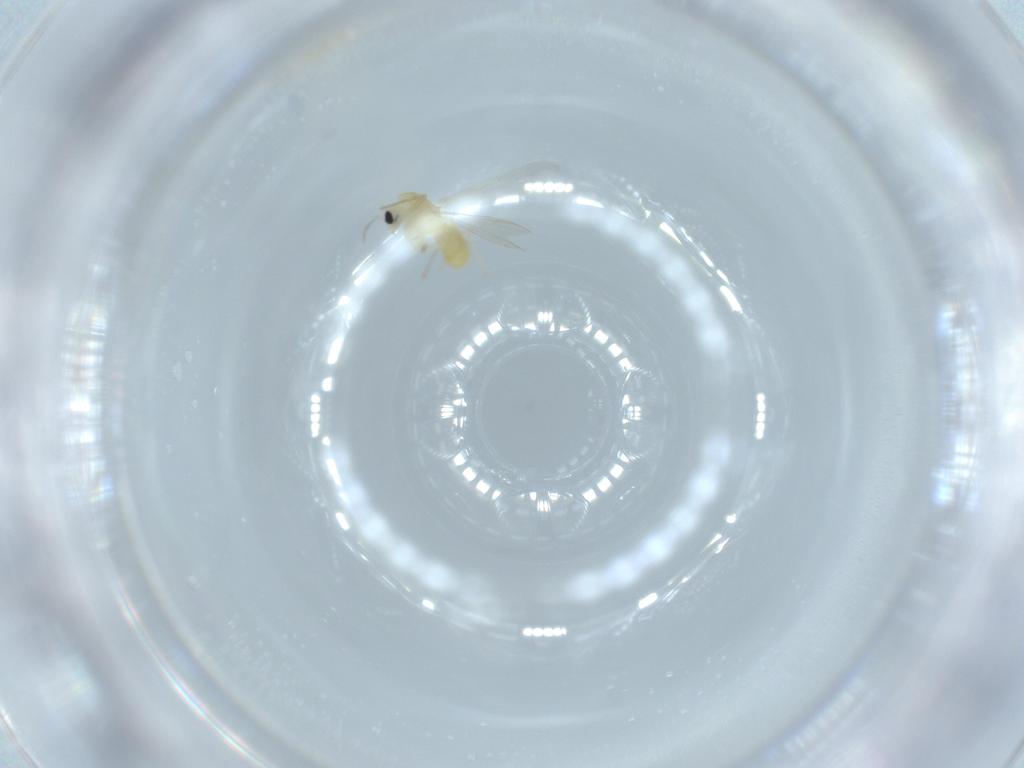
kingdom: Animalia
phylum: Arthropoda
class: Insecta
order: Diptera
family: Chironomidae
